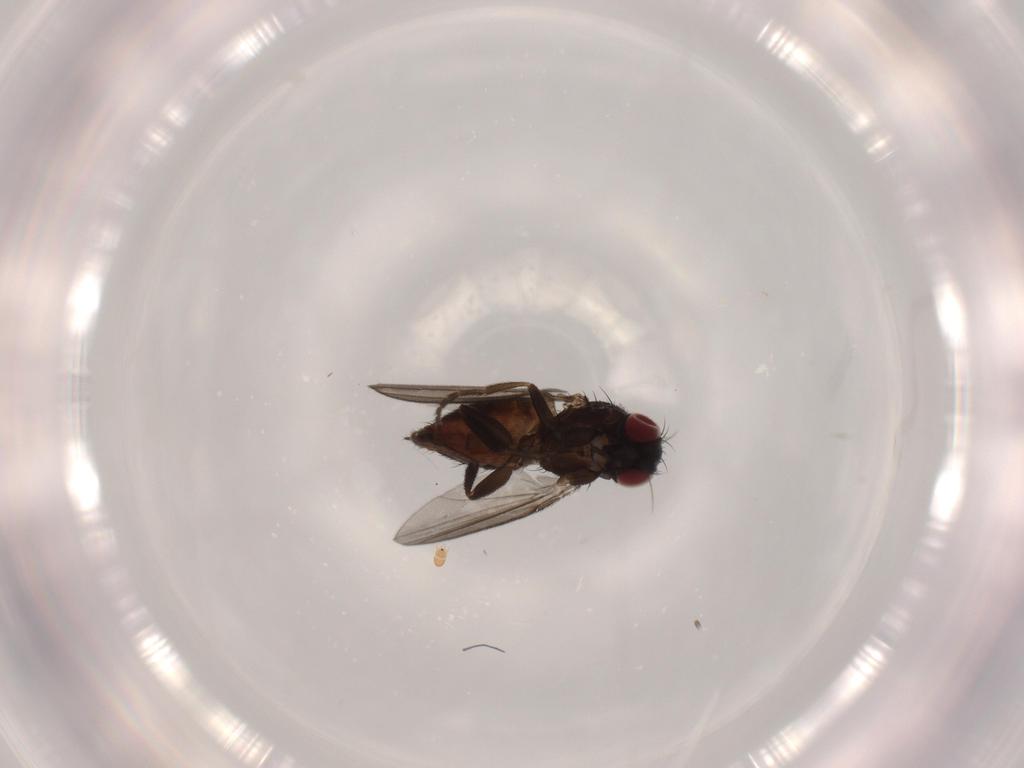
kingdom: Animalia
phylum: Arthropoda
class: Insecta
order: Diptera
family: Milichiidae
